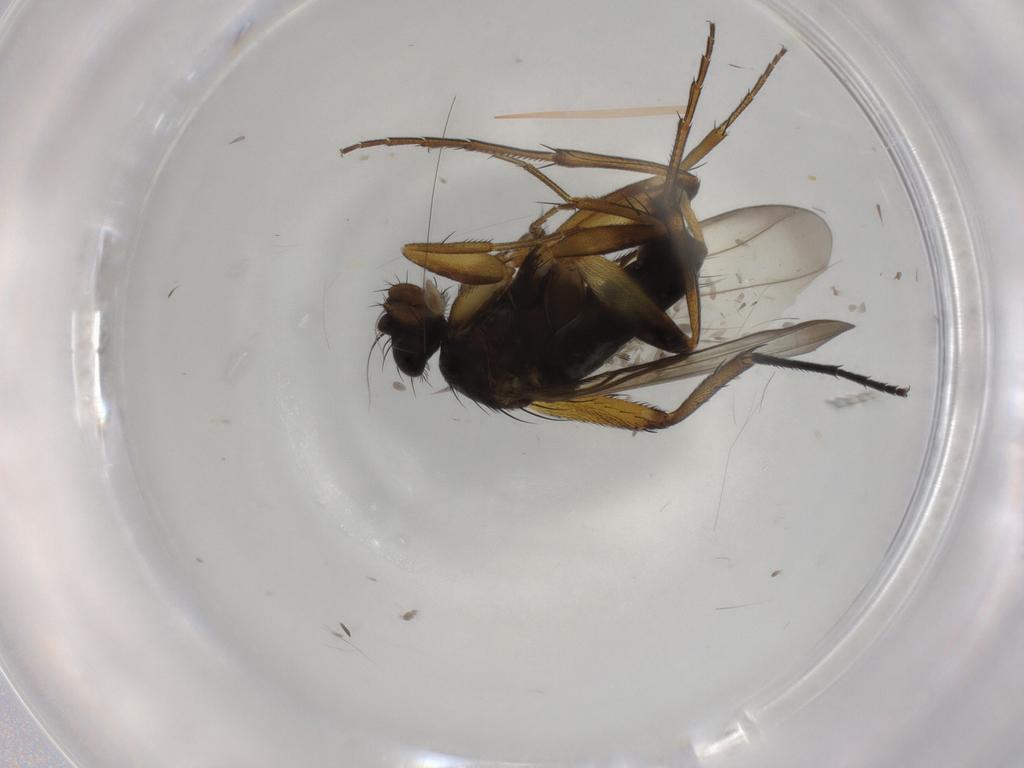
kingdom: Animalia
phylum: Arthropoda
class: Insecta
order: Diptera
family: Phoridae
